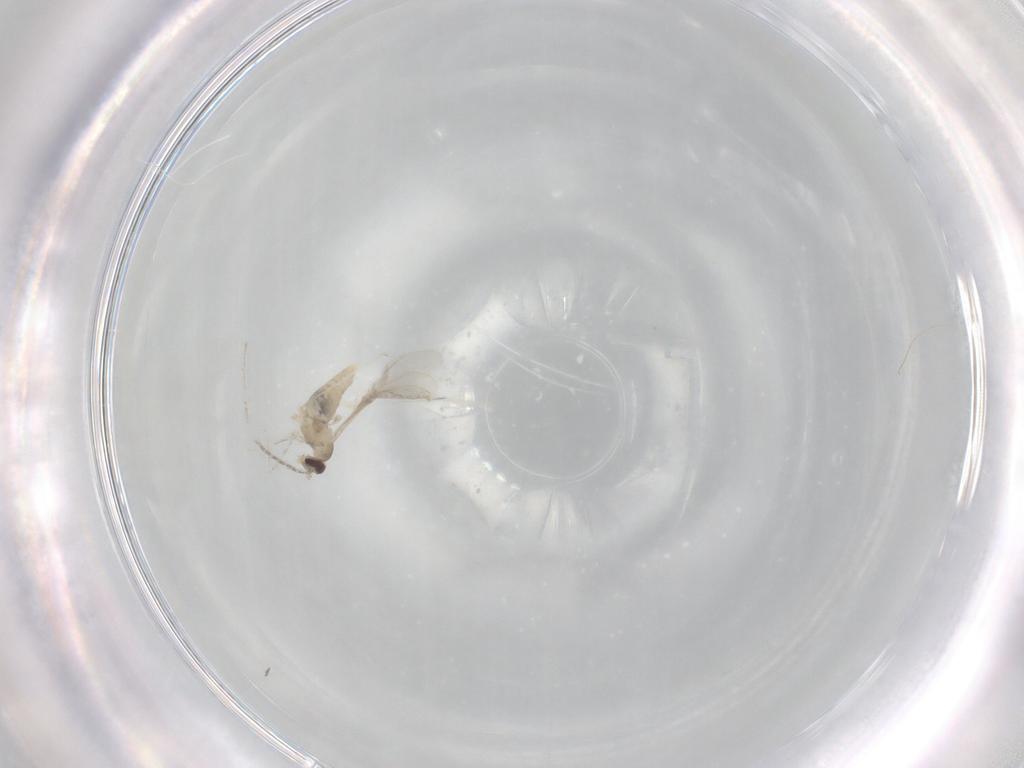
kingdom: Animalia
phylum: Arthropoda
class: Insecta
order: Diptera
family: Cecidomyiidae
